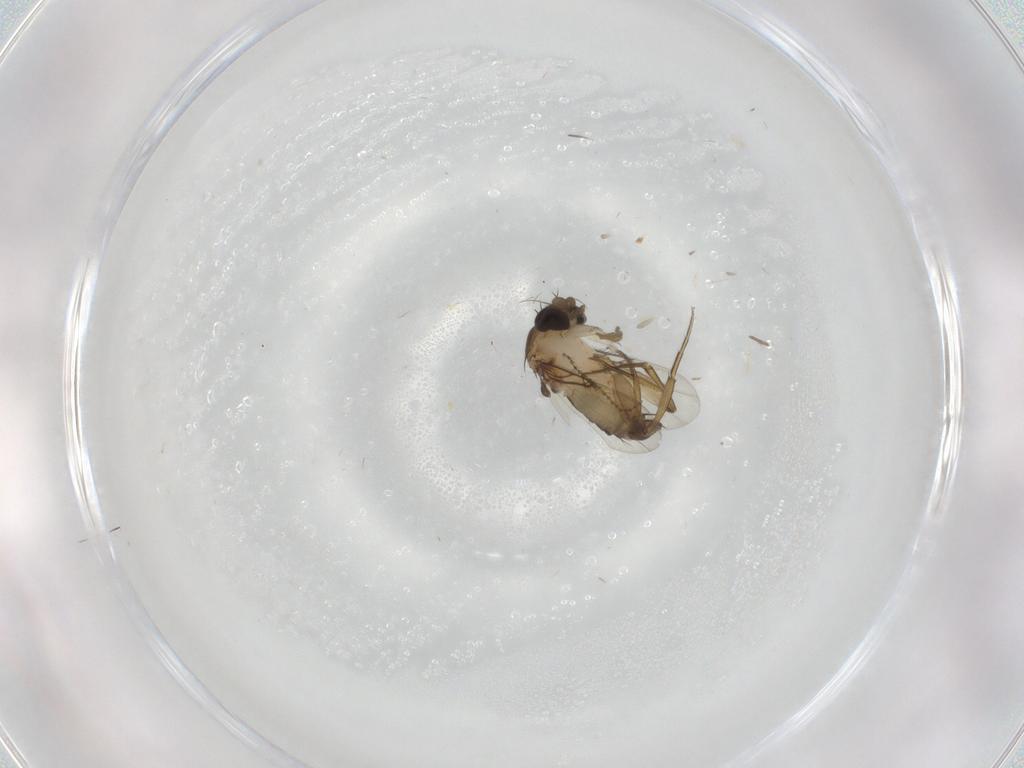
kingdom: Animalia
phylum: Arthropoda
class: Insecta
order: Diptera
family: Phoridae
